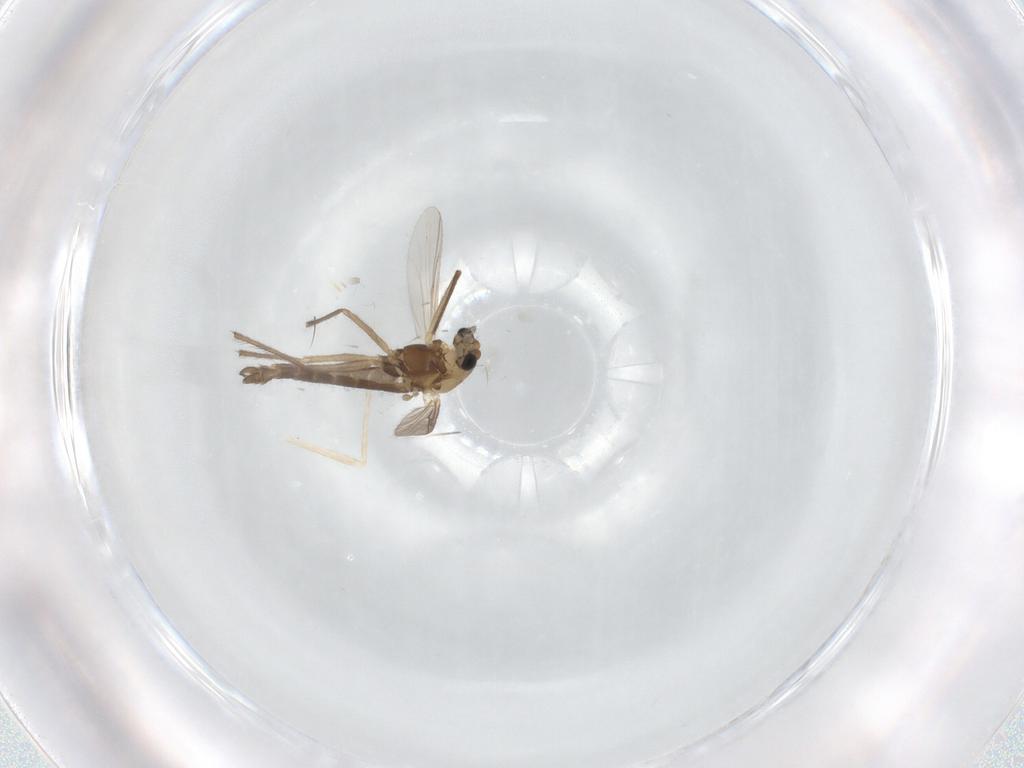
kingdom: Animalia
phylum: Arthropoda
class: Insecta
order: Diptera
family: Chironomidae
